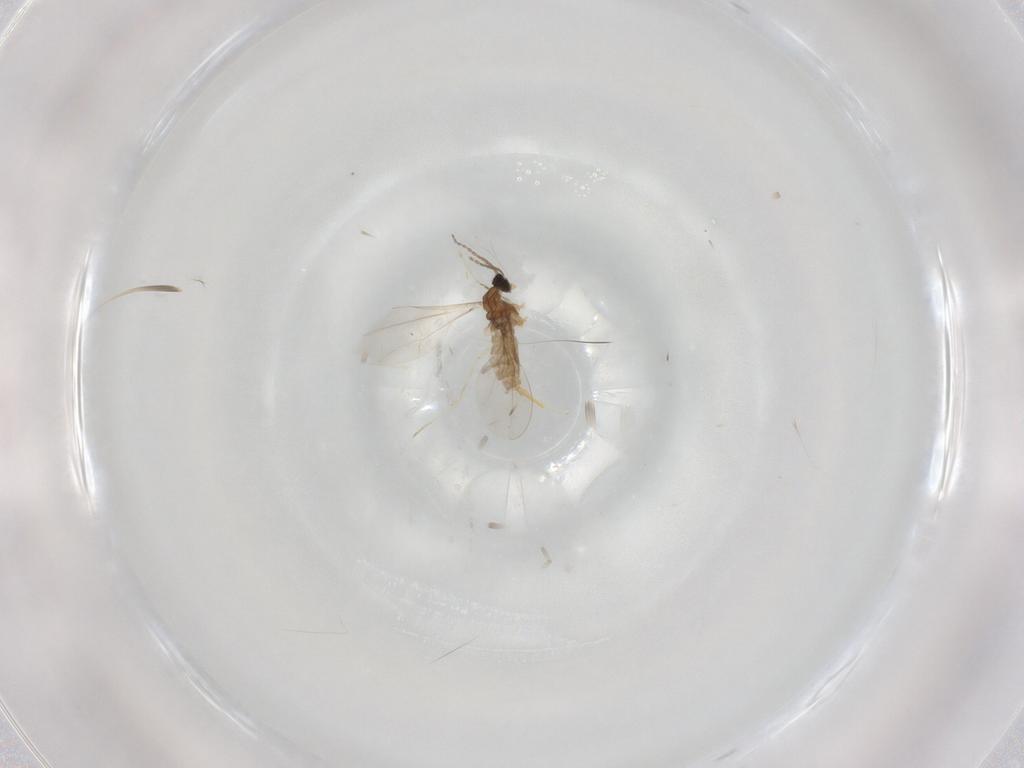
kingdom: Animalia
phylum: Arthropoda
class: Insecta
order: Diptera
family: Cecidomyiidae
